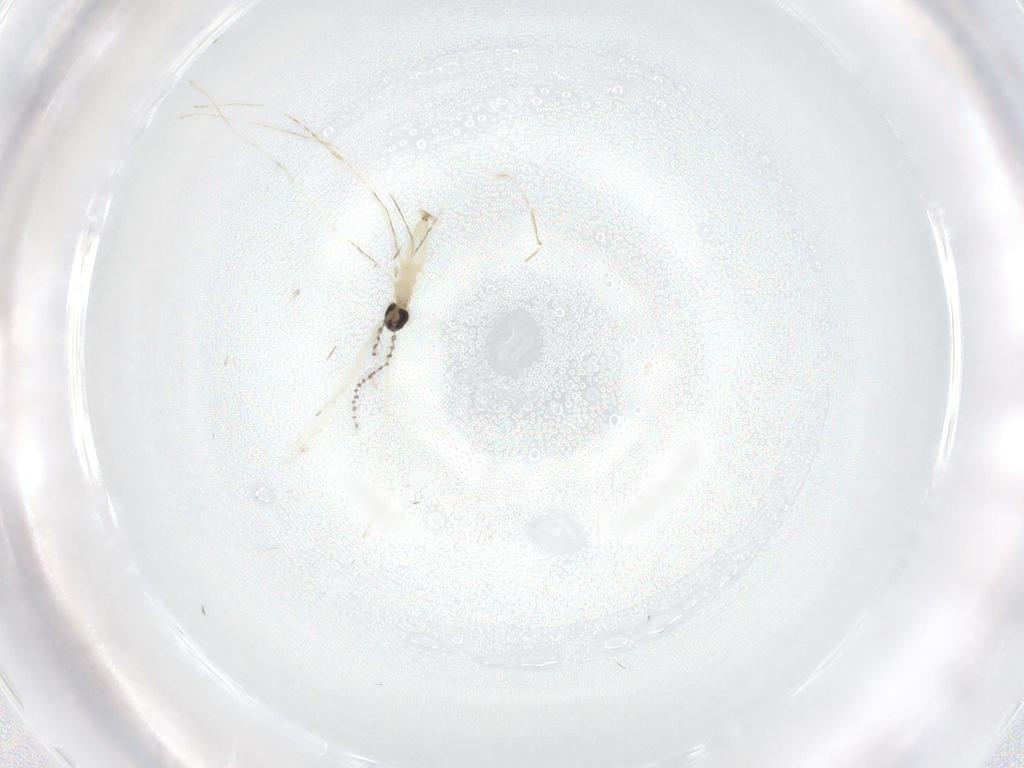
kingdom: Animalia
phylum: Arthropoda
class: Insecta
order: Diptera
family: Cecidomyiidae
